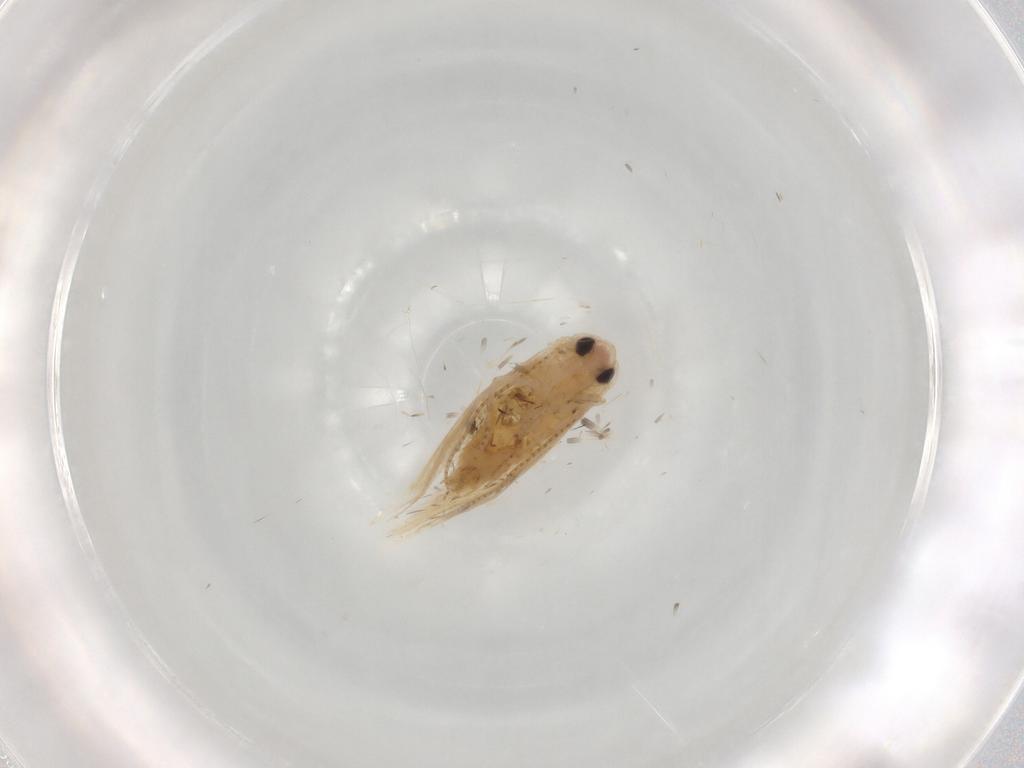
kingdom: Animalia
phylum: Arthropoda
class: Insecta
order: Lepidoptera
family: Bucculatricidae
